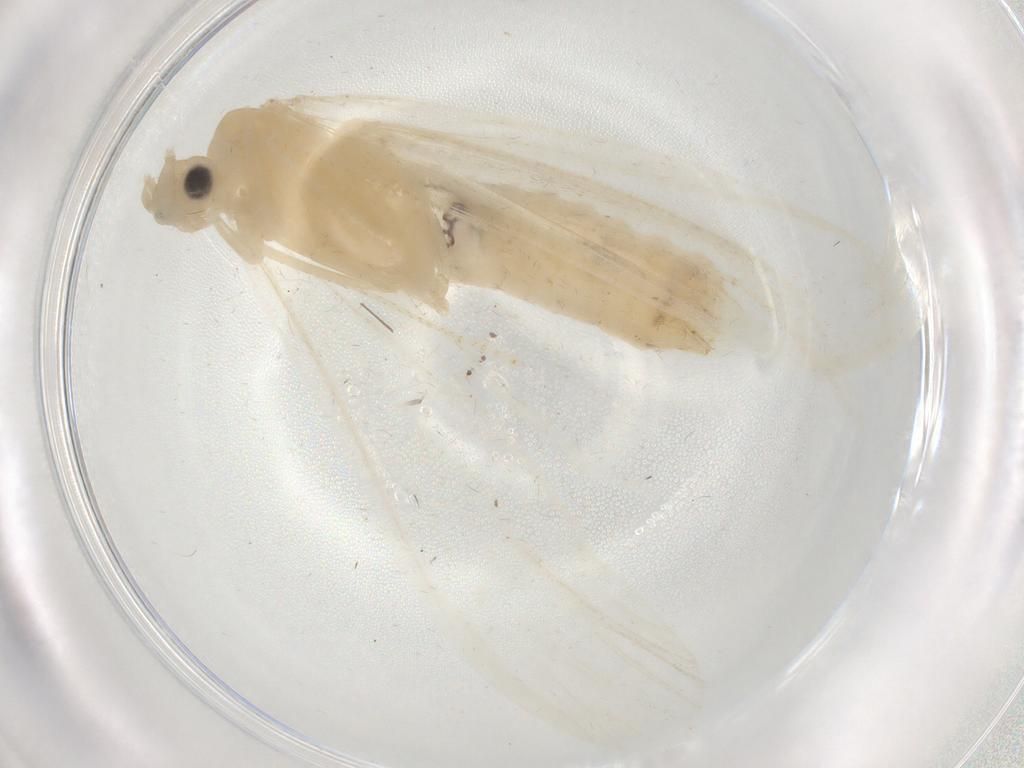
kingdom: Animalia
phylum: Arthropoda
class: Insecta
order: Trichoptera
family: Leptoceridae
